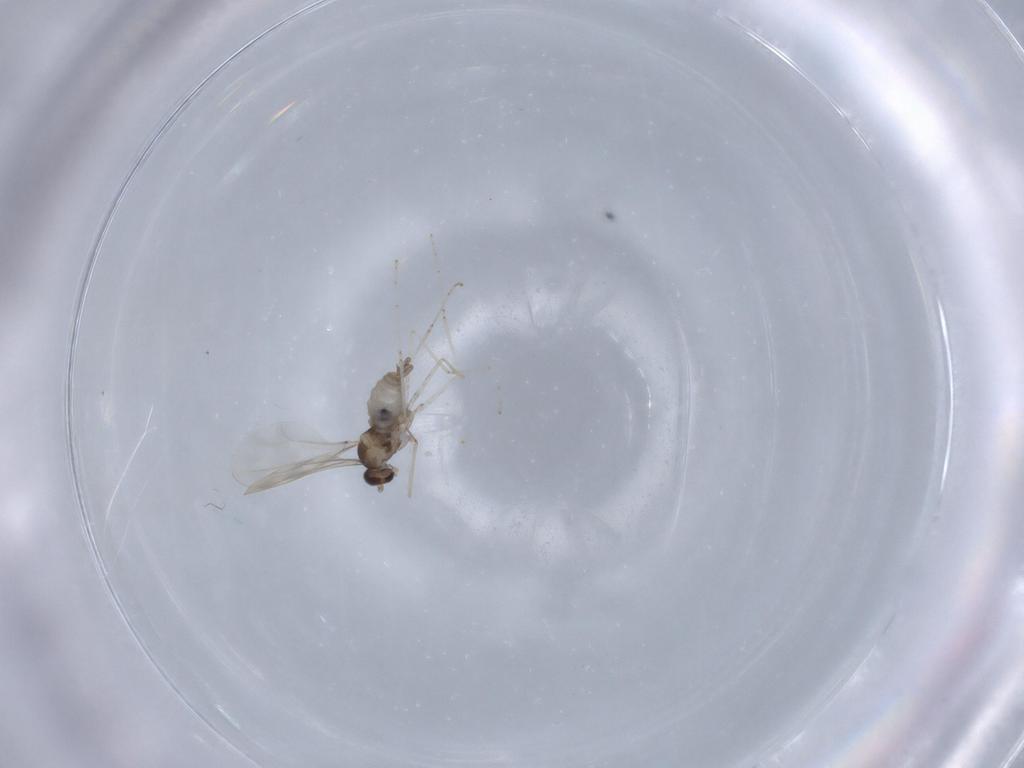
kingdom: Animalia
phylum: Arthropoda
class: Insecta
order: Diptera
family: Cecidomyiidae
